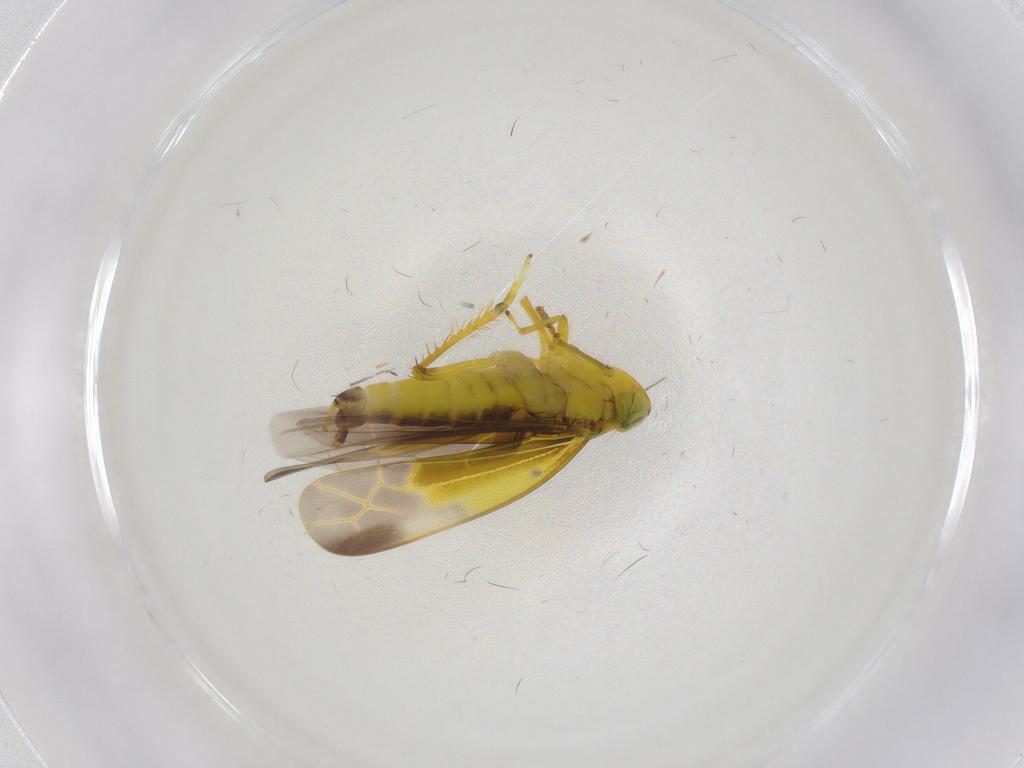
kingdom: Animalia
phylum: Arthropoda
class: Insecta
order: Hemiptera
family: Cicadellidae
